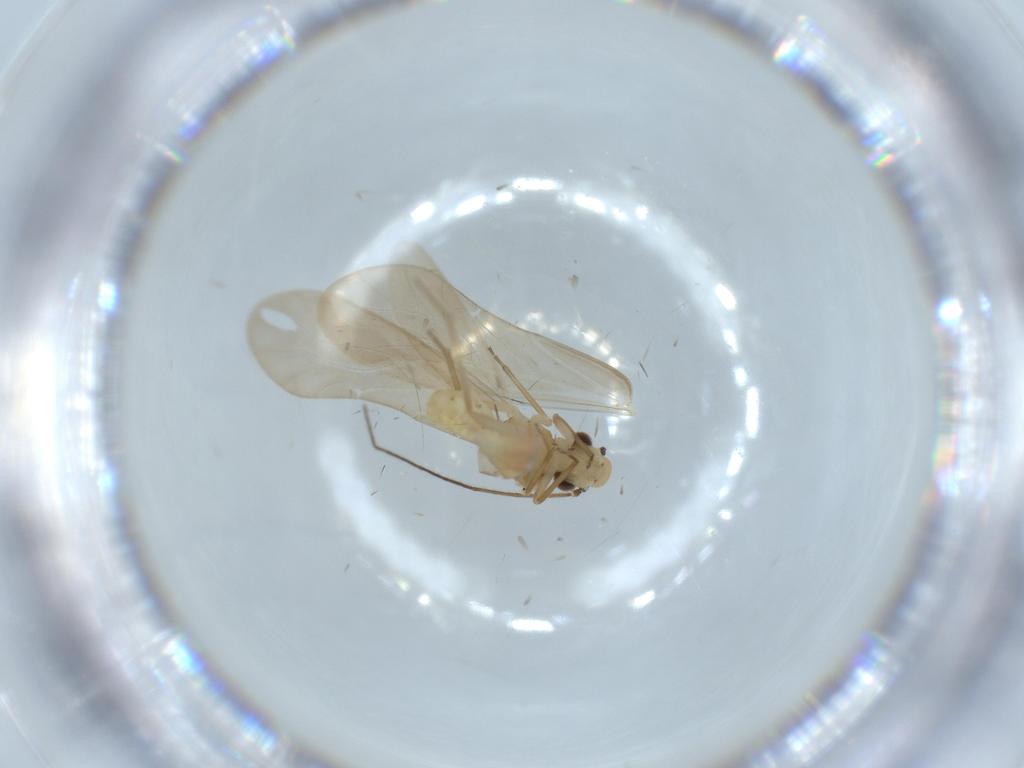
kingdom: Animalia
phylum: Arthropoda
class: Insecta
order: Psocodea
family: Caeciliusidae
